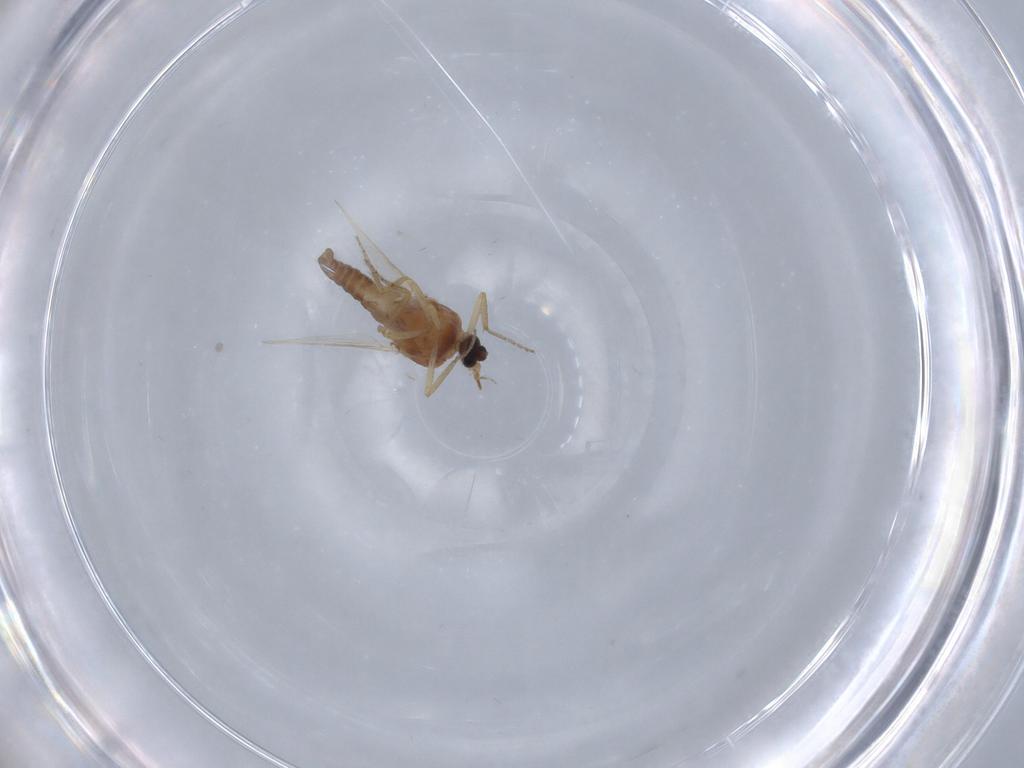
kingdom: Animalia
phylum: Arthropoda
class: Insecta
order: Diptera
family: Ceratopogonidae
